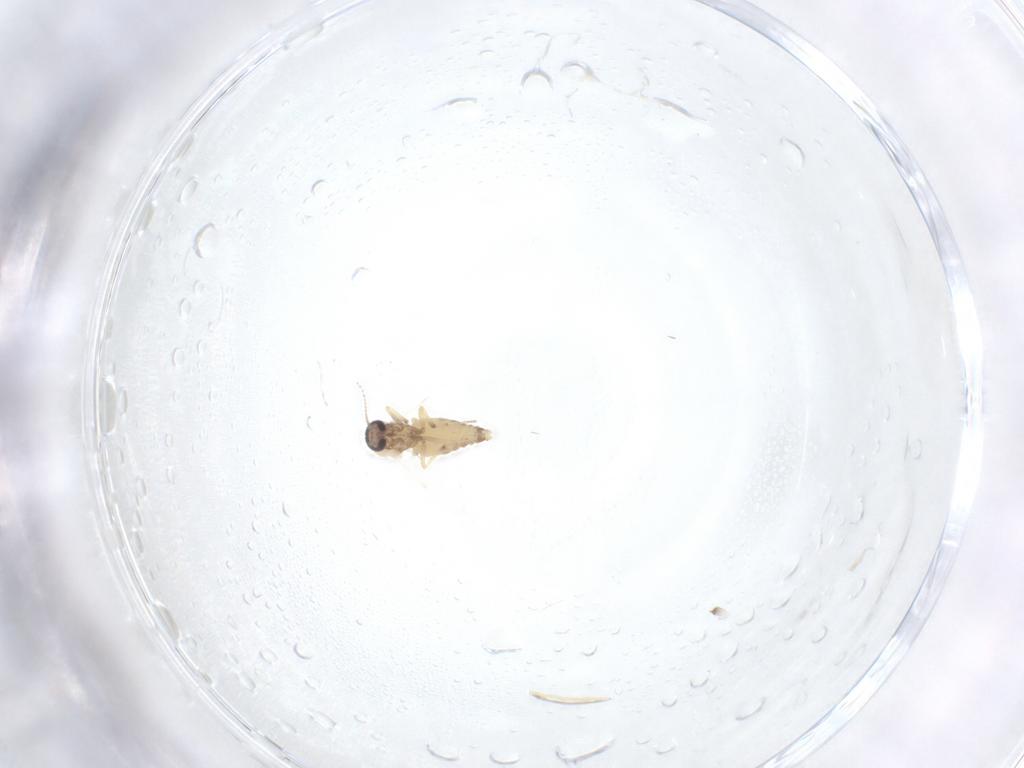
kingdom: Animalia
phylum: Arthropoda
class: Insecta
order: Diptera
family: Ceratopogonidae
